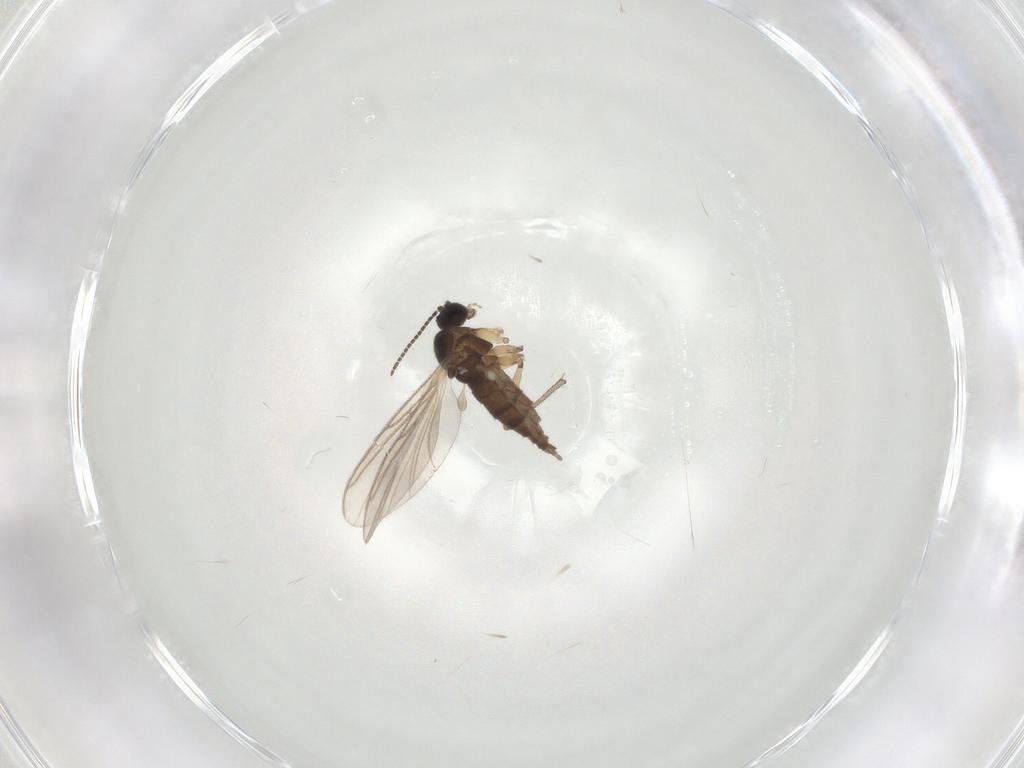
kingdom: Animalia
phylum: Arthropoda
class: Insecta
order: Diptera
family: Sciaridae
